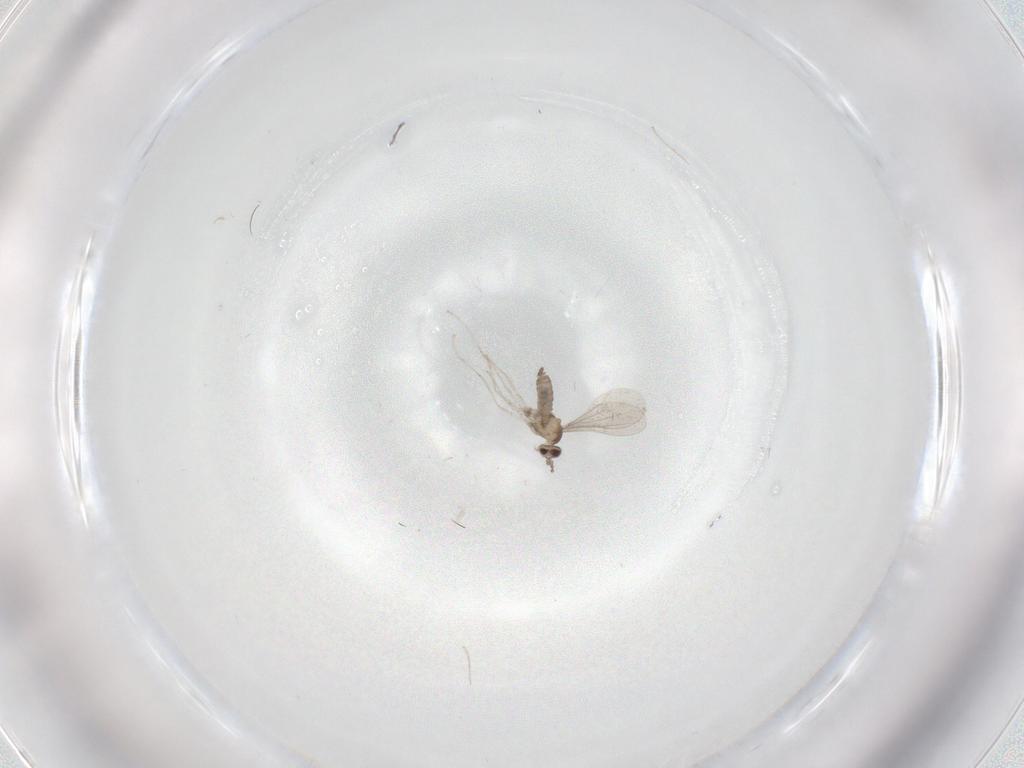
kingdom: Animalia
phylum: Arthropoda
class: Insecta
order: Diptera
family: Cecidomyiidae
